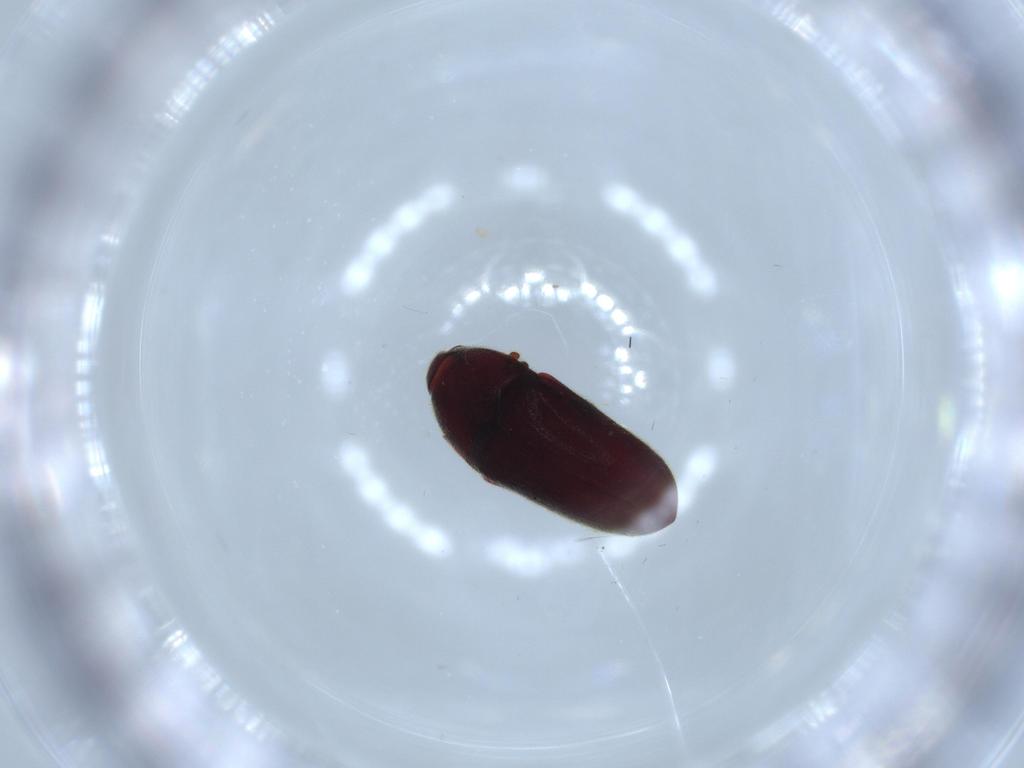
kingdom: Animalia
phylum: Arthropoda
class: Insecta
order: Coleoptera
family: Throscidae
